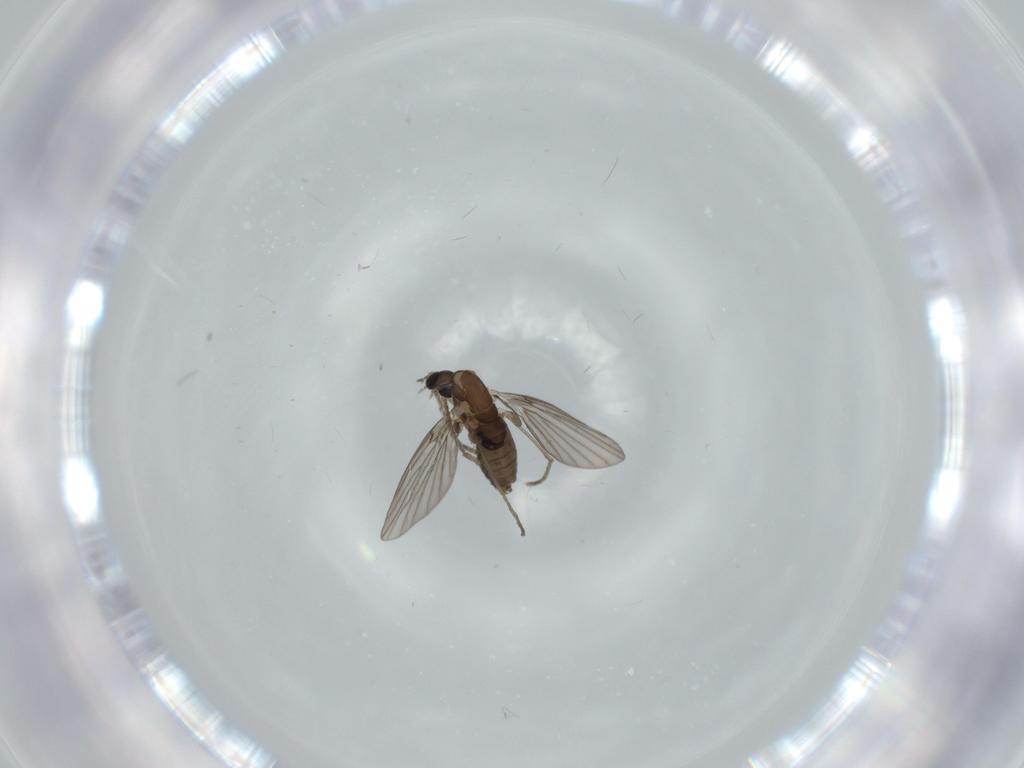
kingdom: Animalia
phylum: Arthropoda
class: Insecta
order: Diptera
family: Psychodidae
